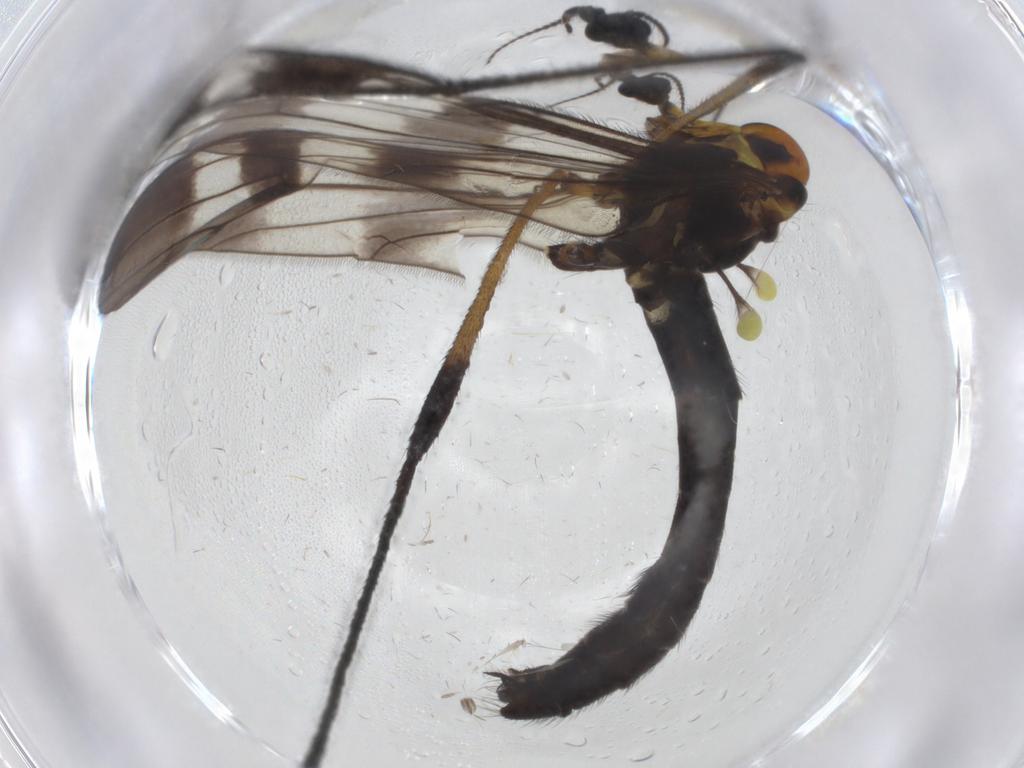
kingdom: Animalia
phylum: Arthropoda
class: Insecta
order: Diptera
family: Limoniidae
